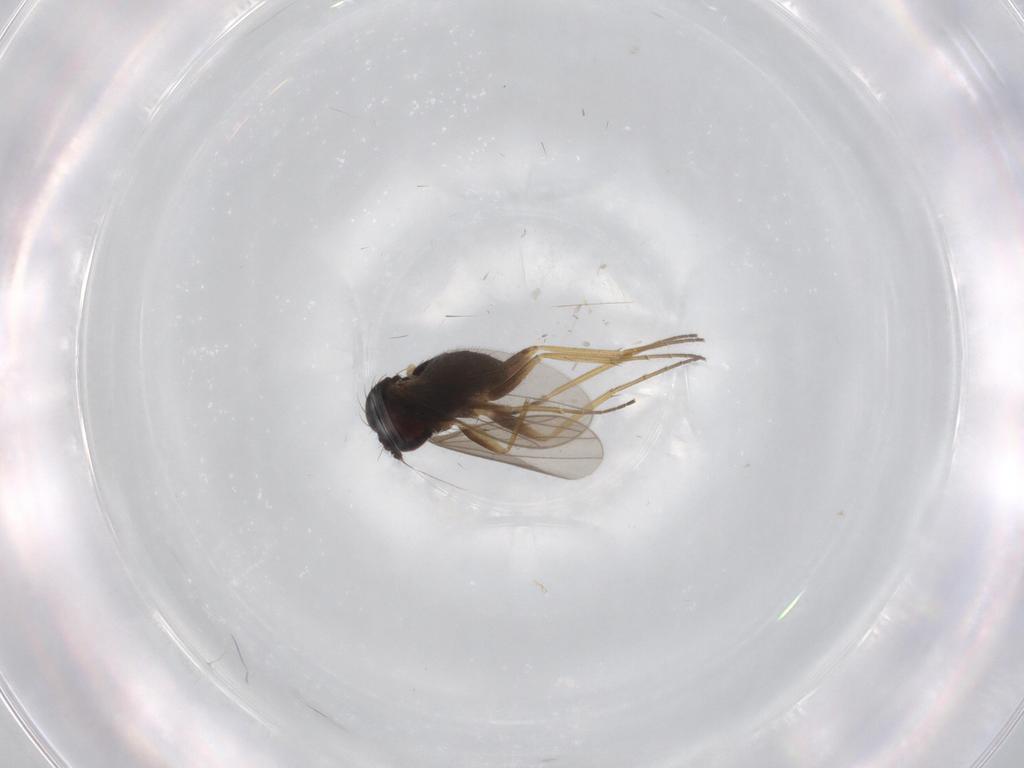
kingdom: Animalia
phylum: Arthropoda
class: Insecta
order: Diptera
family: Dolichopodidae
